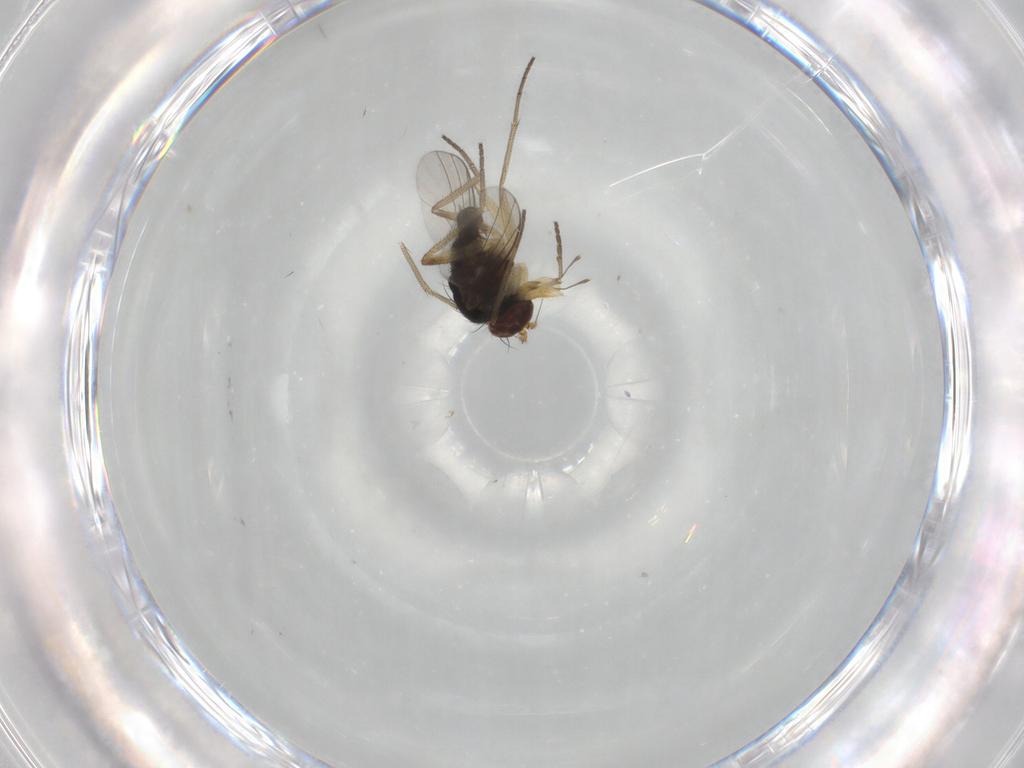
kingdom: Animalia
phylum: Arthropoda
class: Insecta
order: Diptera
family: Dolichopodidae
